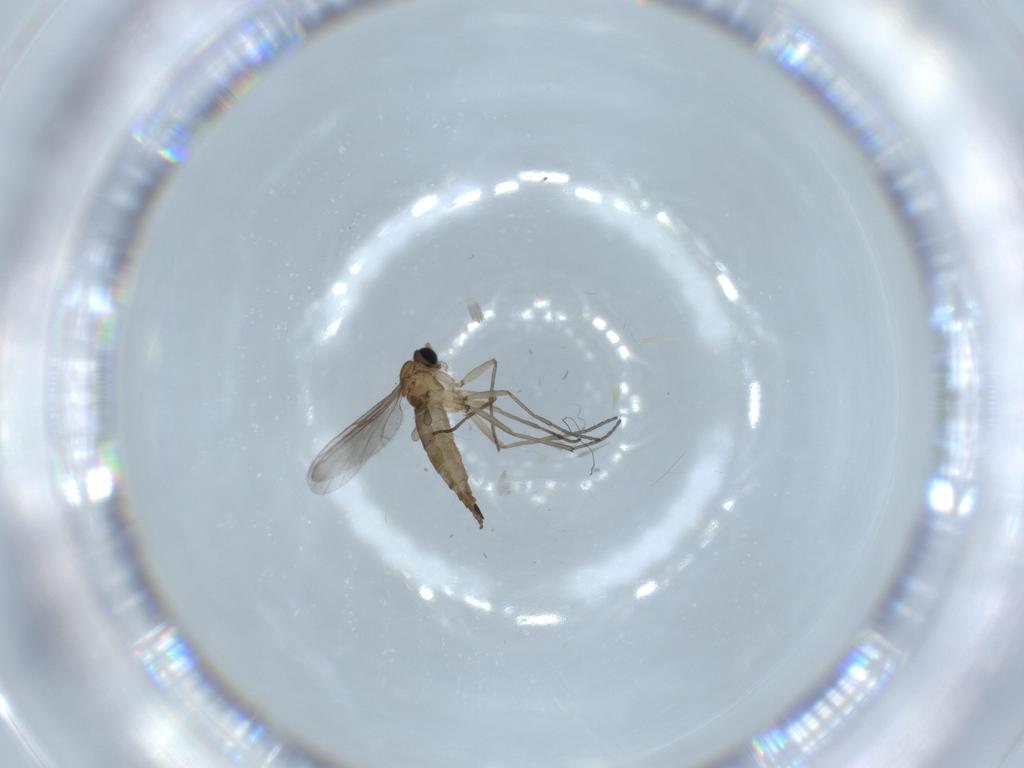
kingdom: Animalia
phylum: Arthropoda
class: Insecta
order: Diptera
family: Sciaridae
